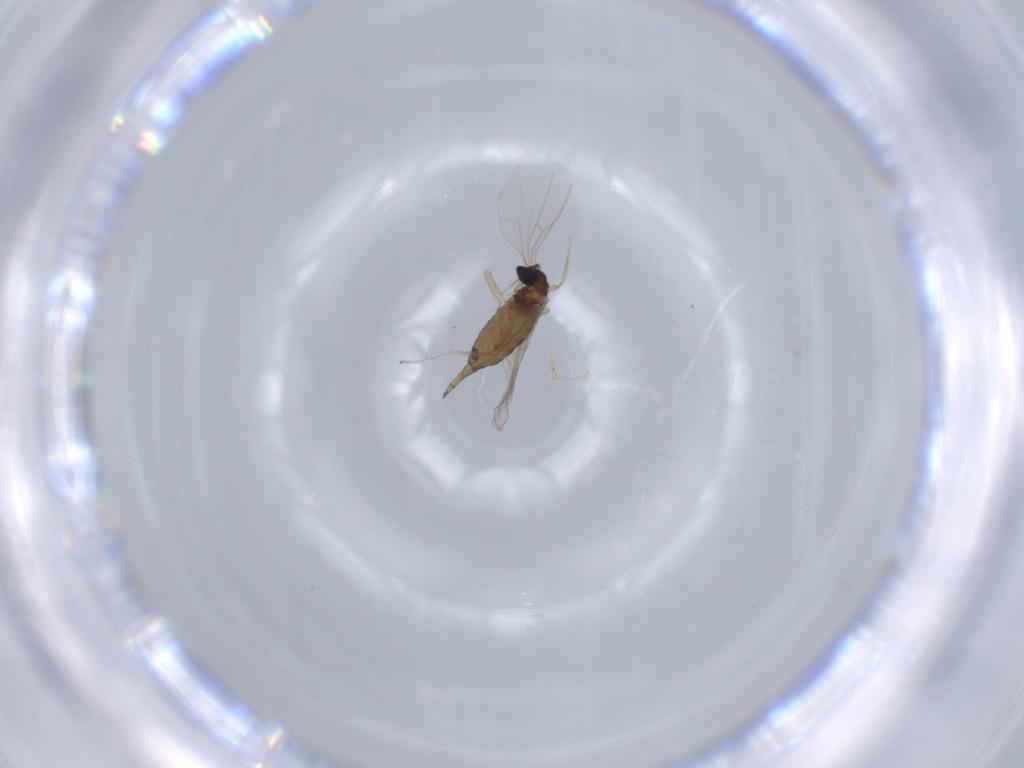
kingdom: Animalia
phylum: Arthropoda
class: Insecta
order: Diptera
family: Cecidomyiidae
